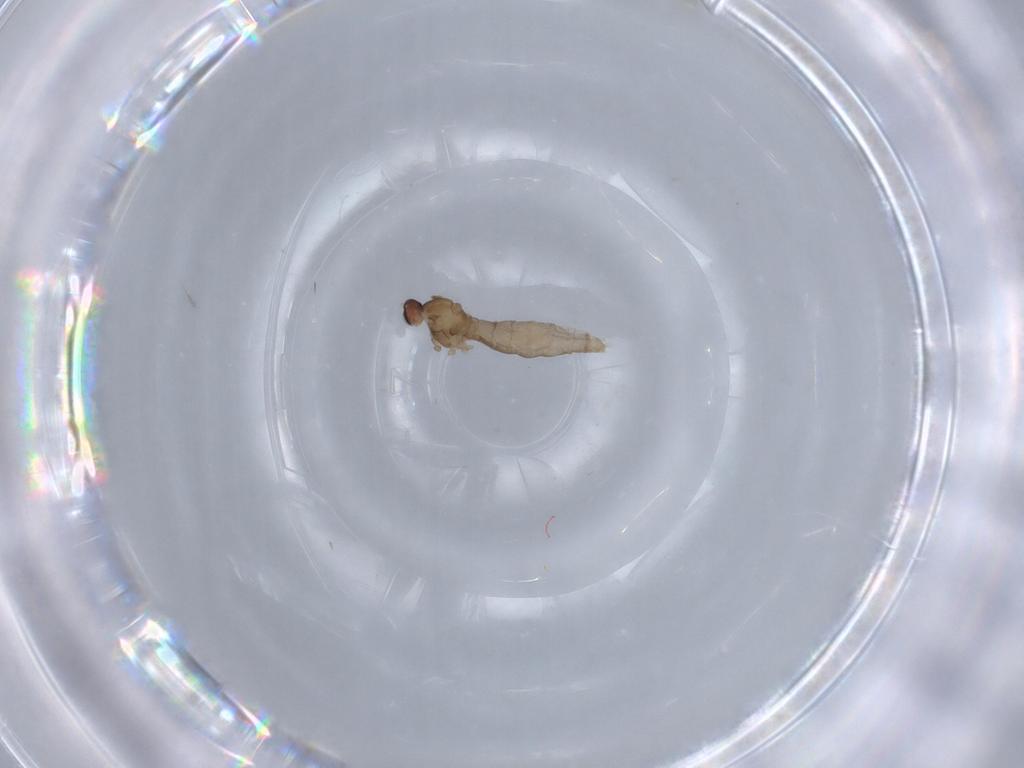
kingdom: Animalia
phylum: Arthropoda
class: Insecta
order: Diptera
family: Cecidomyiidae
